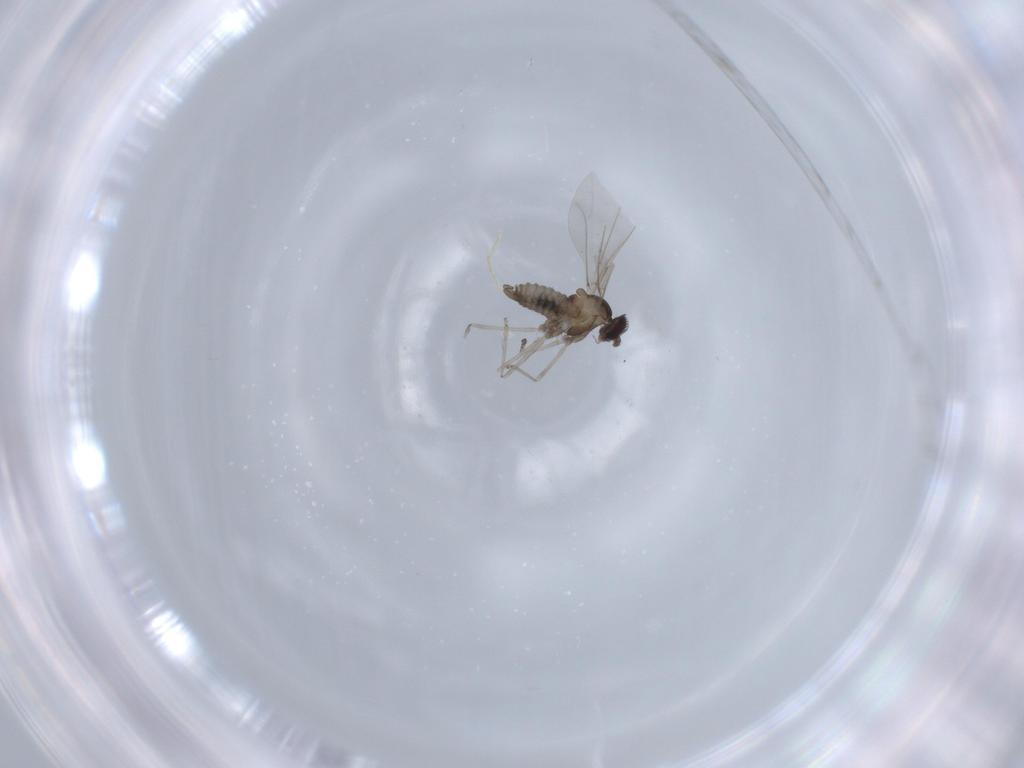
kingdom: Animalia
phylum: Arthropoda
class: Insecta
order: Diptera
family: Cecidomyiidae
